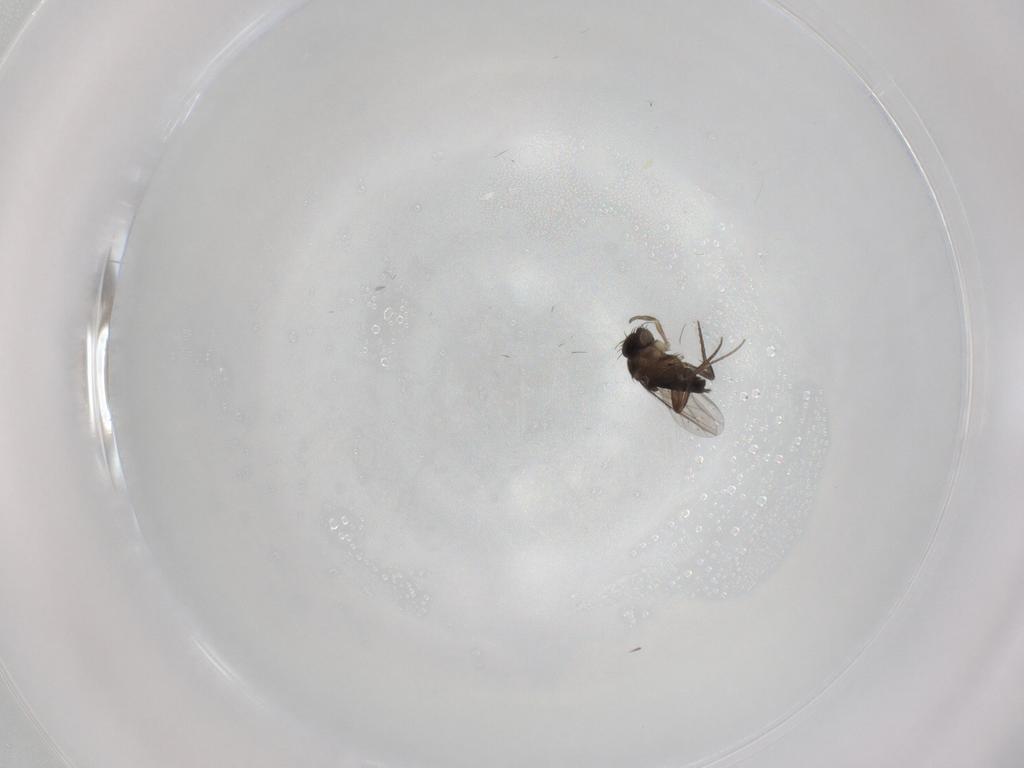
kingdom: Animalia
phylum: Arthropoda
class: Insecta
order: Diptera
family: Phoridae
